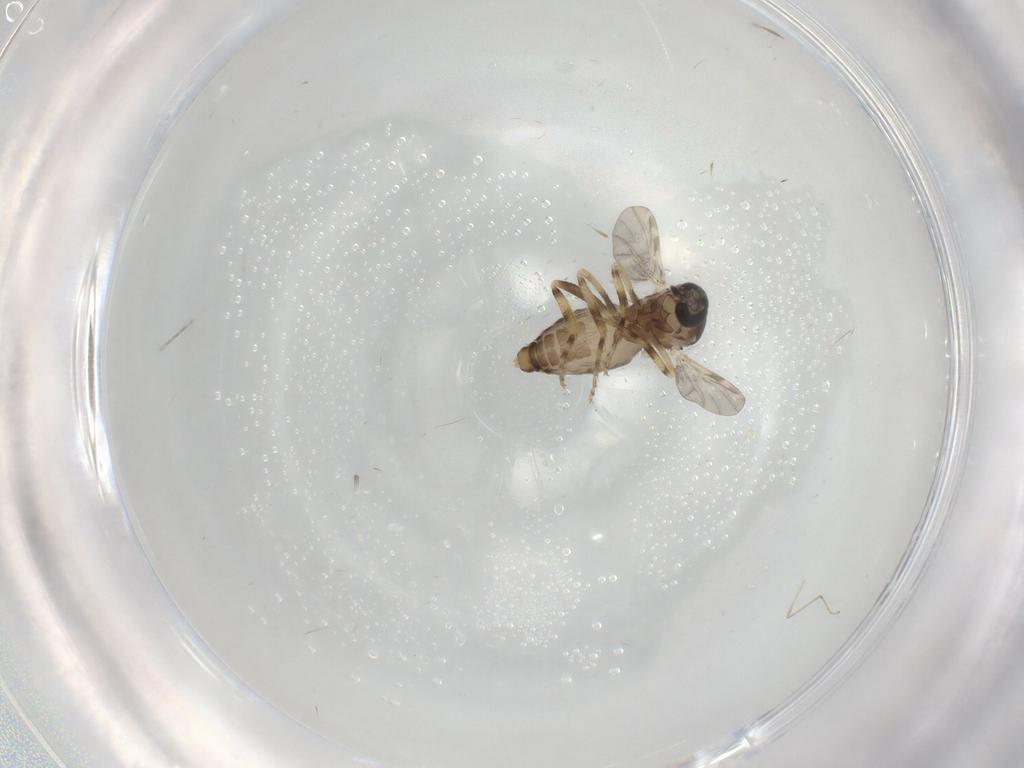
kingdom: Animalia
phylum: Arthropoda
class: Insecta
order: Diptera
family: Ceratopogonidae
